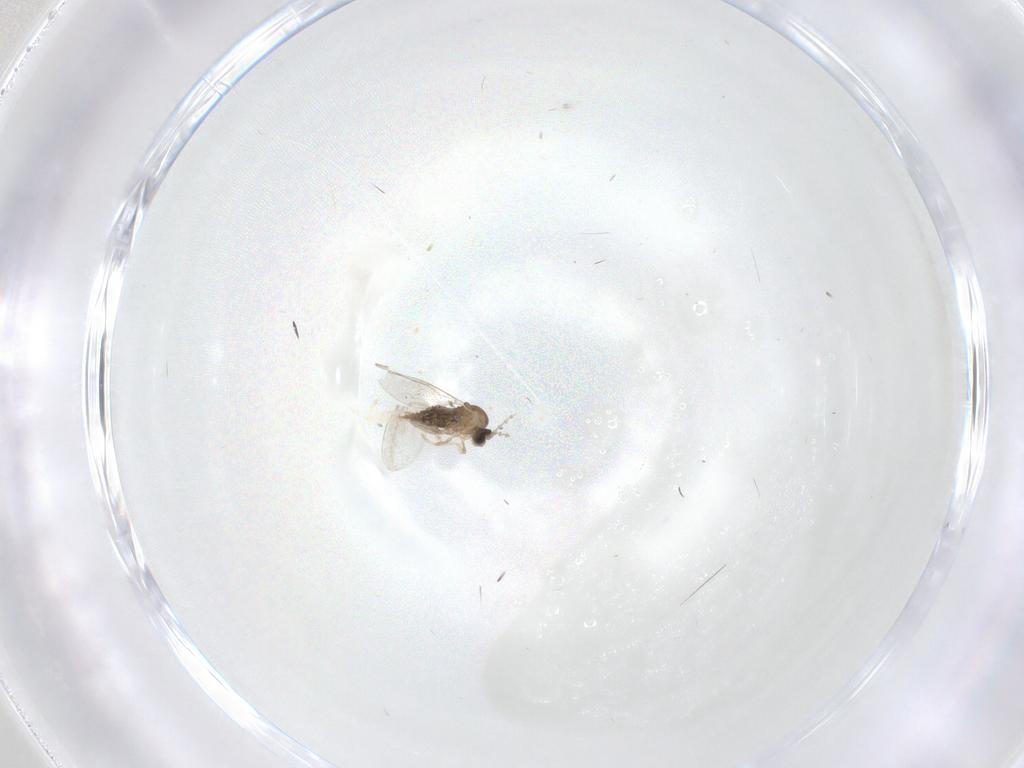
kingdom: Animalia
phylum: Arthropoda
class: Insecta
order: Diptera
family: Cecidomyiidae
